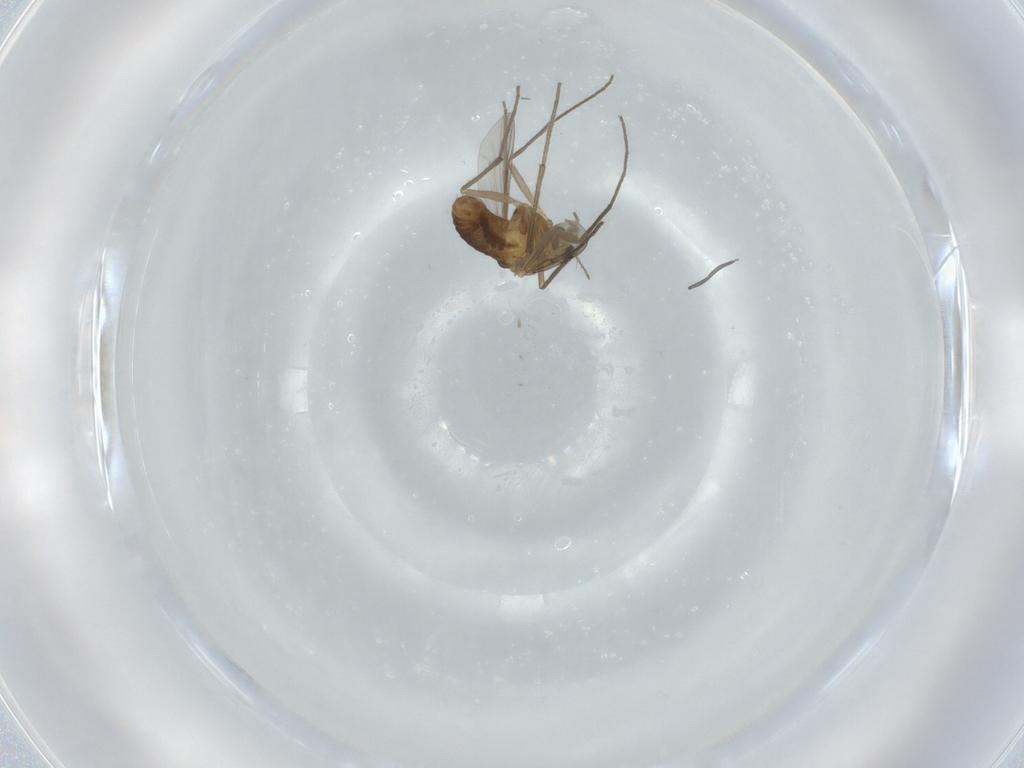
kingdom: Animalia
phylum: Arthropoda
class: Insecta
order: Diptera
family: Chironomidae
